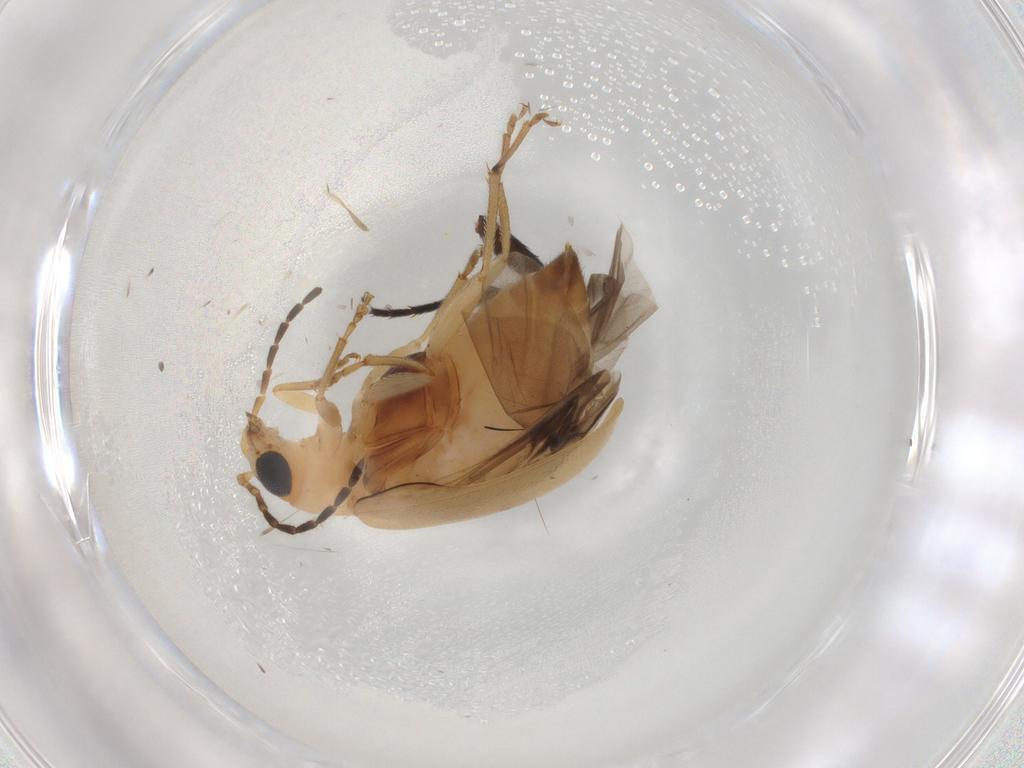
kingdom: Animalia
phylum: Arthropoda
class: Insecta
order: Coleoptera
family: Chrysomelidae
